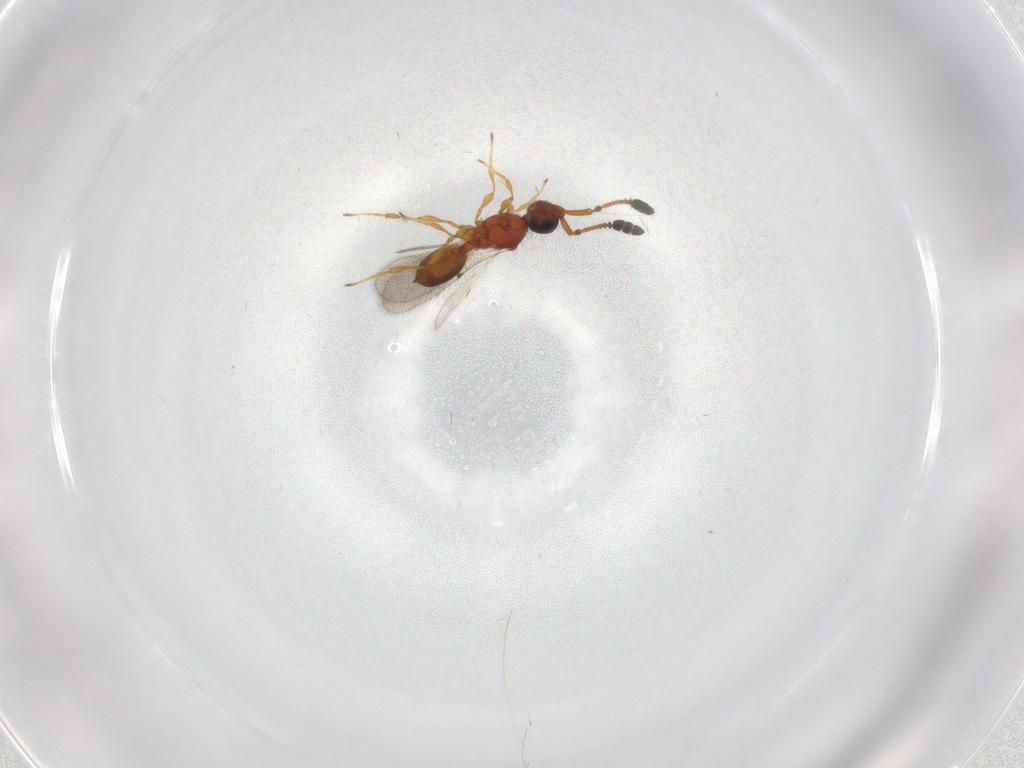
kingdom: Animalia
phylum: Arthropoda
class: Insecta
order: Hymenoptera
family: Diapriidae
